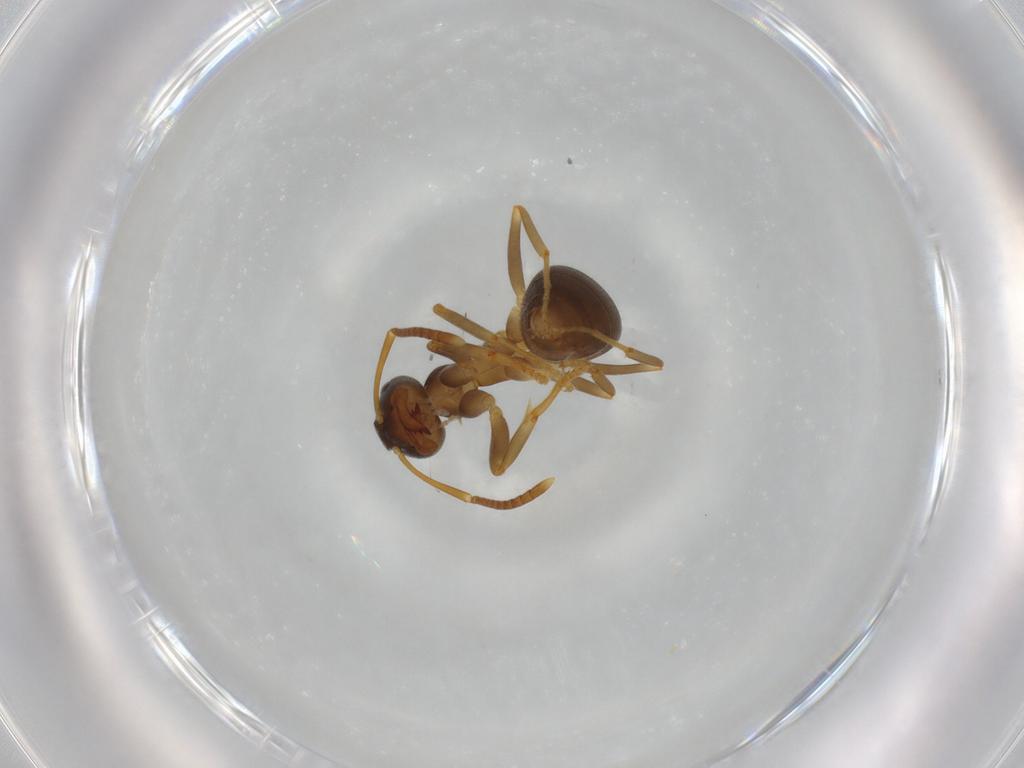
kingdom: Animalia
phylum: Arthropoda
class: Insecta
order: Hymenoptera
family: Formicidae
